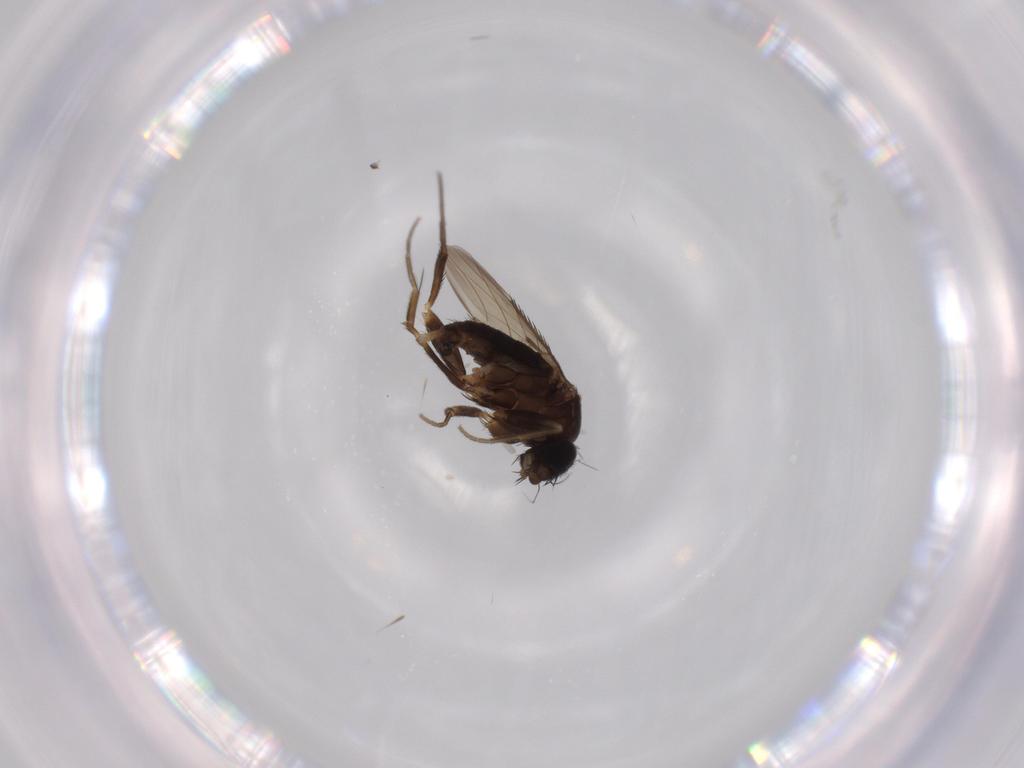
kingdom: Animalia
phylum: Arthropoda
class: Insecta
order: Diptera
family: Phoridae
